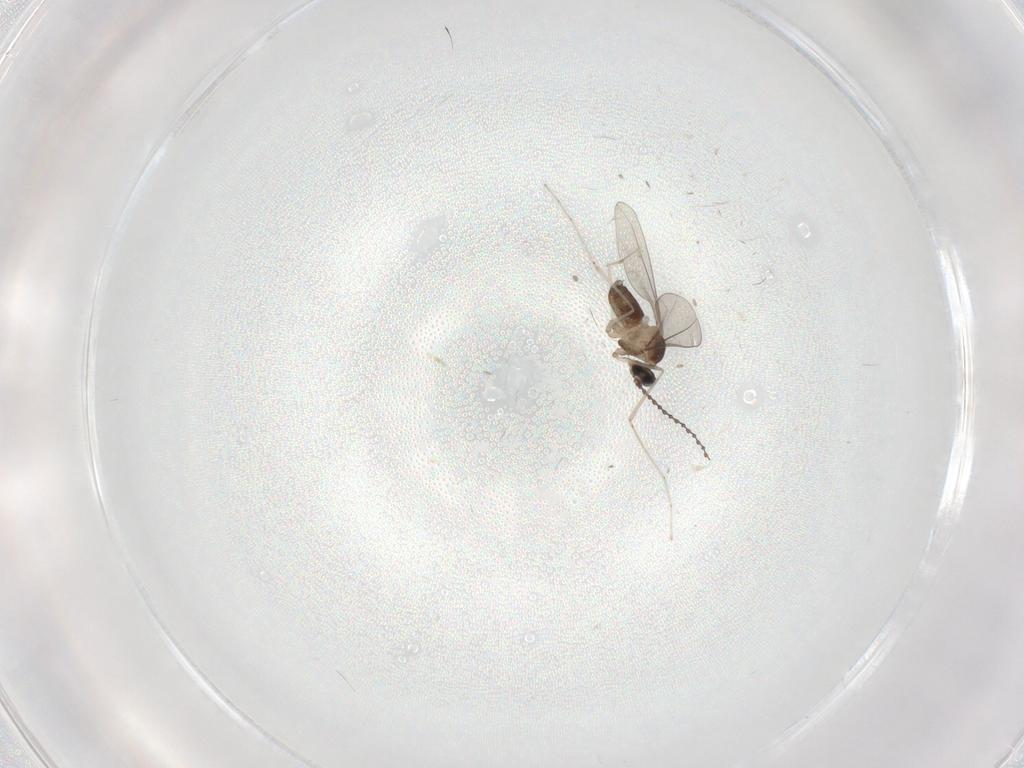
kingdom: Animalia
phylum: Arthropoda
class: Insecta
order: Diptera
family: Cecidomyiidae
